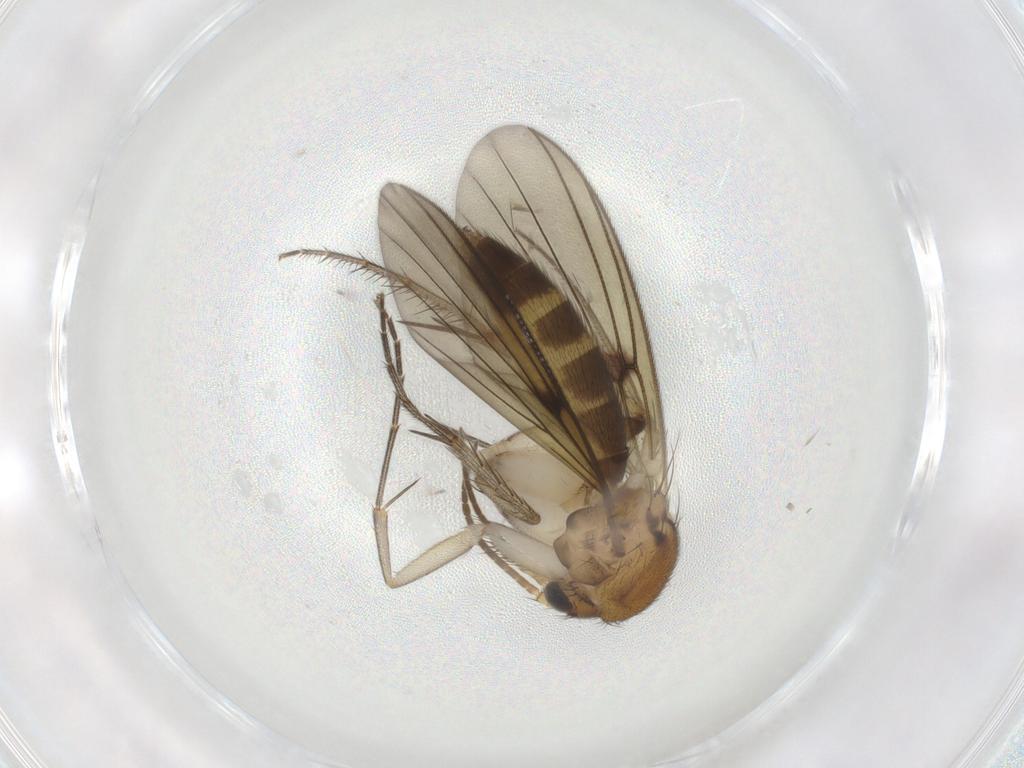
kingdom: Animalia
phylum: Arthropoda
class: Insecta
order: Diptera
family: Mycetophilidae
